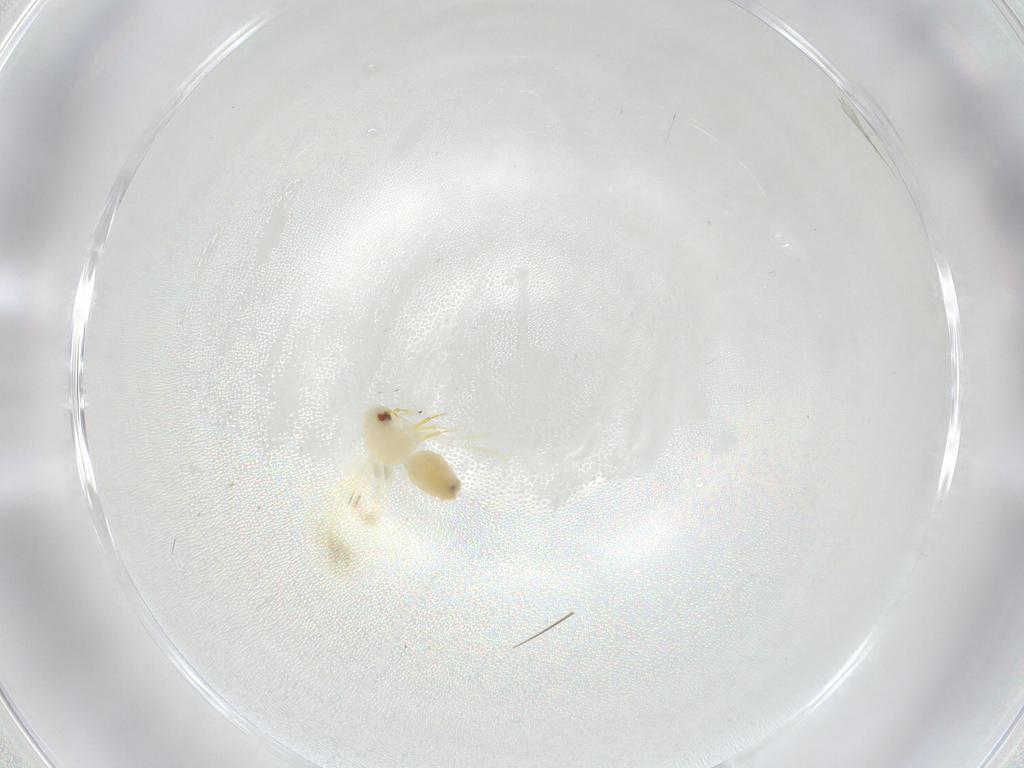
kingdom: Animalia
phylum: Arthropoda
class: Insecta
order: Hemiptera
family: Aleyrodidae
